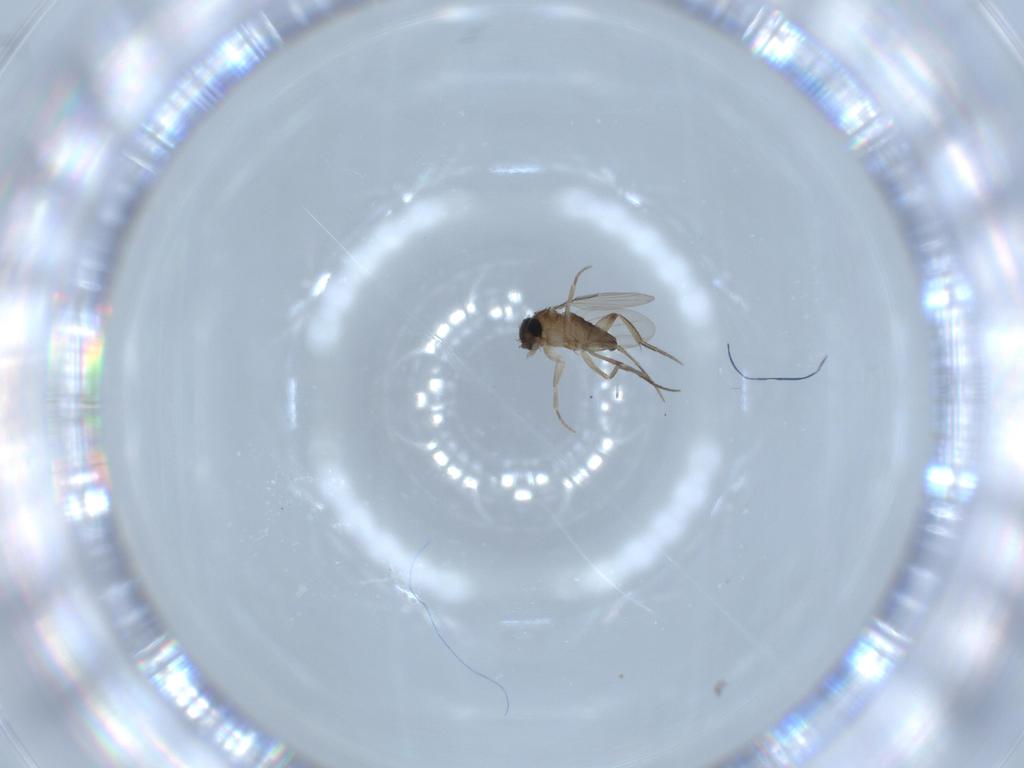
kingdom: Animalia
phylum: Arthropoda
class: Insecta
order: Diptera
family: Phoridae
